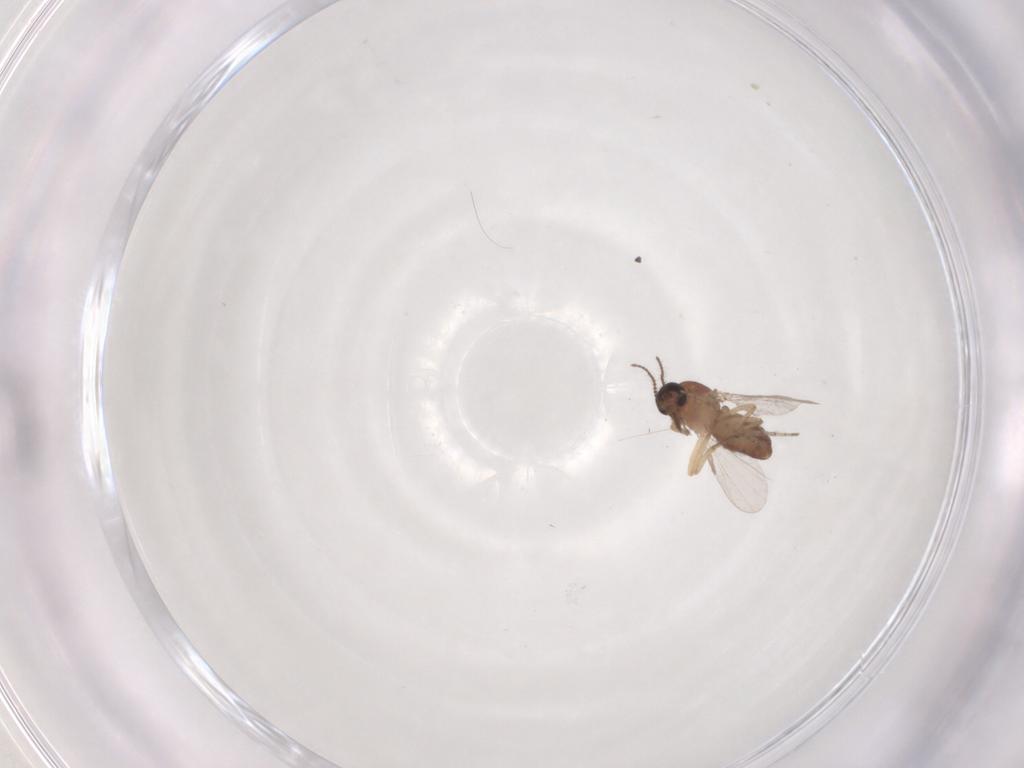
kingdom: Animalia
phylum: Arthropoda
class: Insecta
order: Diptera
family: Ceratopogonidae
